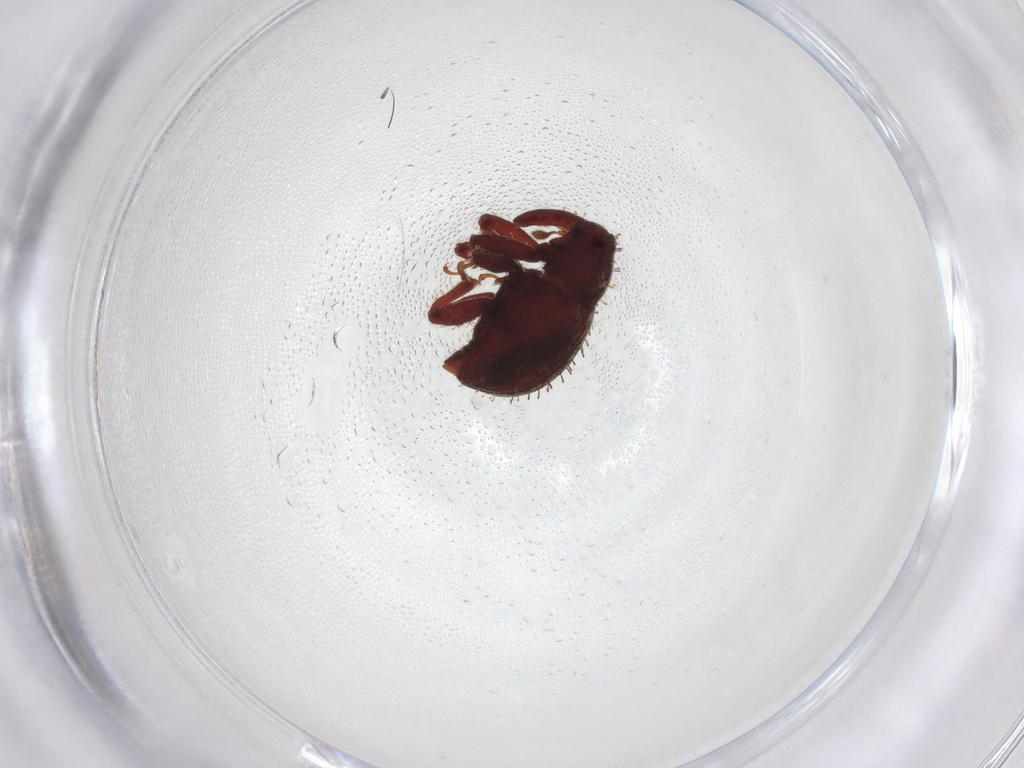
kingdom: Animalia
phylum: Arthropoda
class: Insecta
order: Coleoptera
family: Curculionidae
